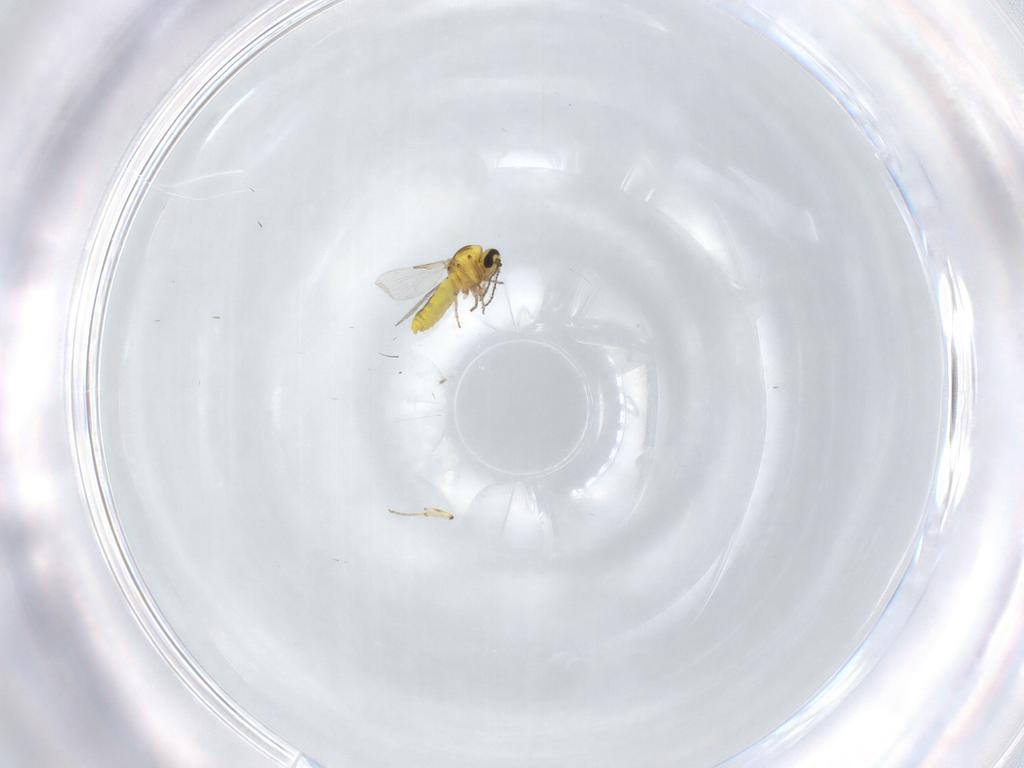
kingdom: Animalia
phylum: Arthropoda
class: Insecta
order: Diptera
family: Ceratopogonidae
